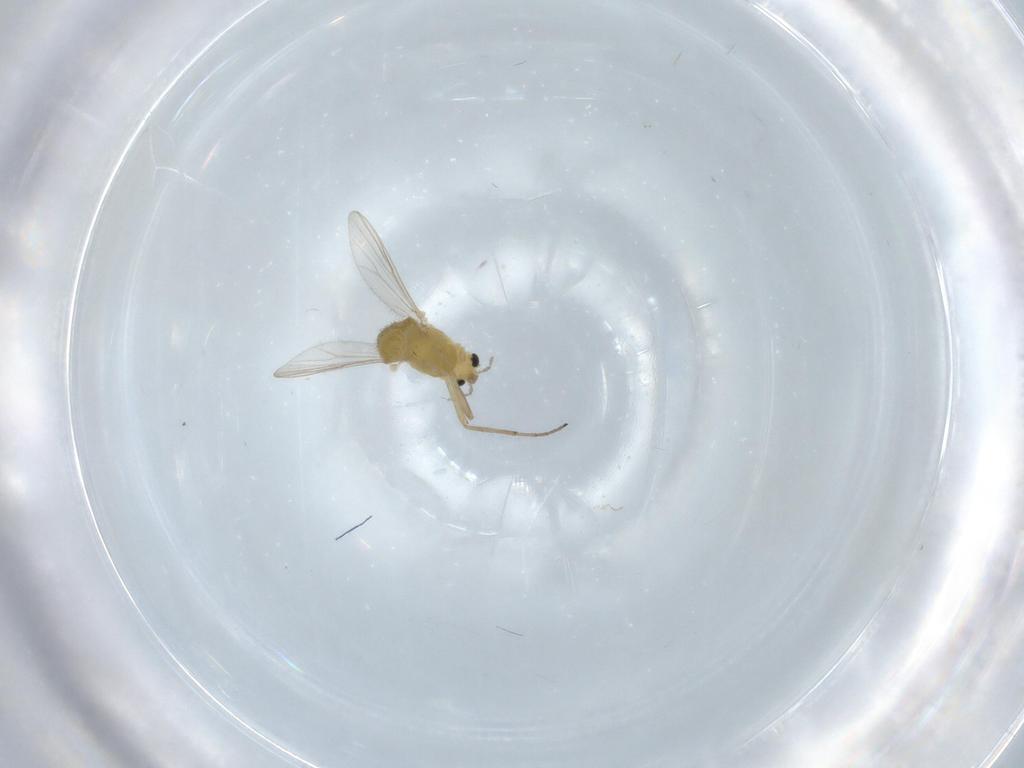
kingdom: Animalia
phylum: Arthropoda
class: Insecta
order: Diptera
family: Chironomidae
